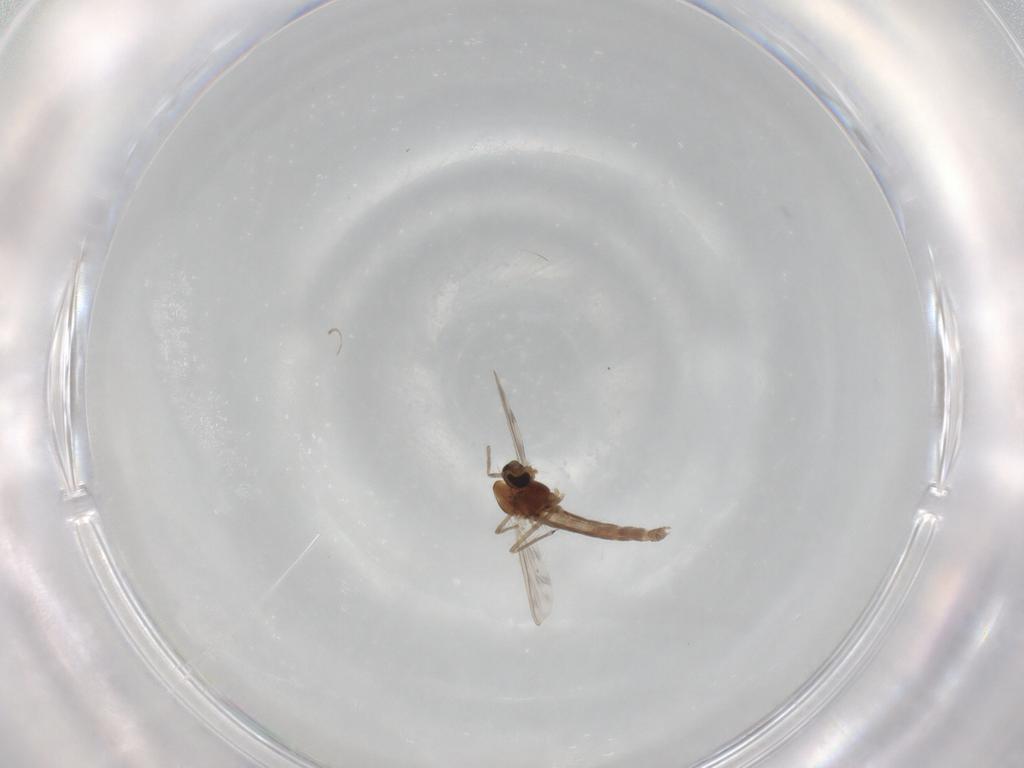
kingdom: Animalia
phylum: Arthropoda
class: Insecta
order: Diptera
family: Chironomidae
